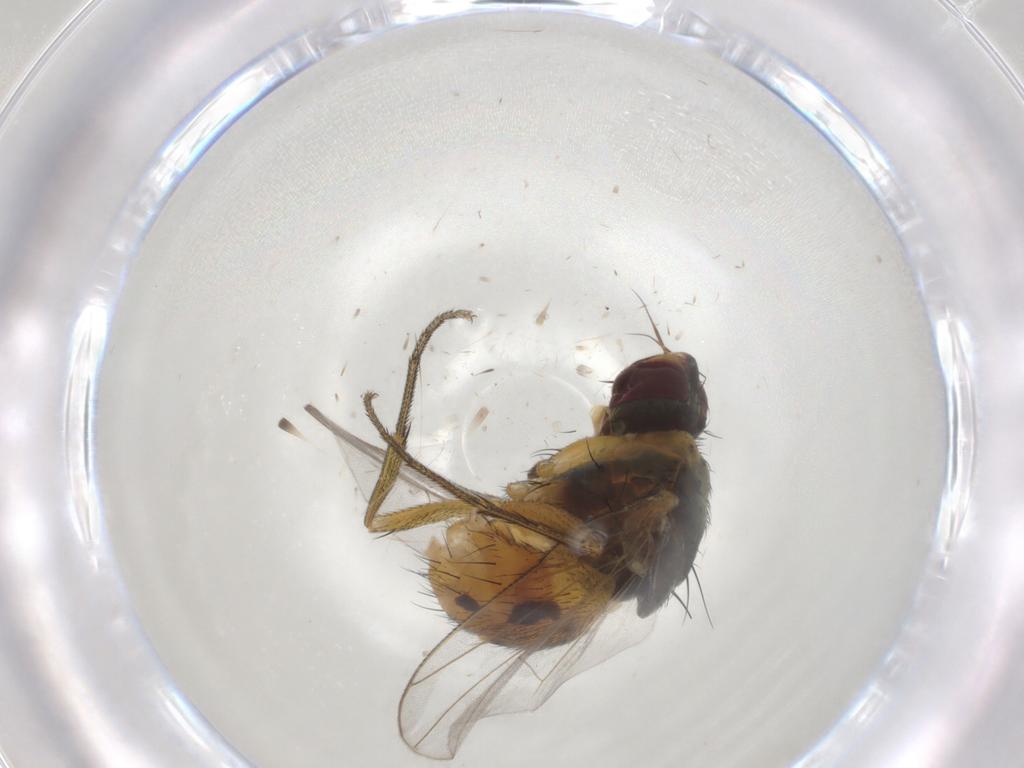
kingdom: Animalia
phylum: Arthropoda
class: Insecta
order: Diptera
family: Muscidae
